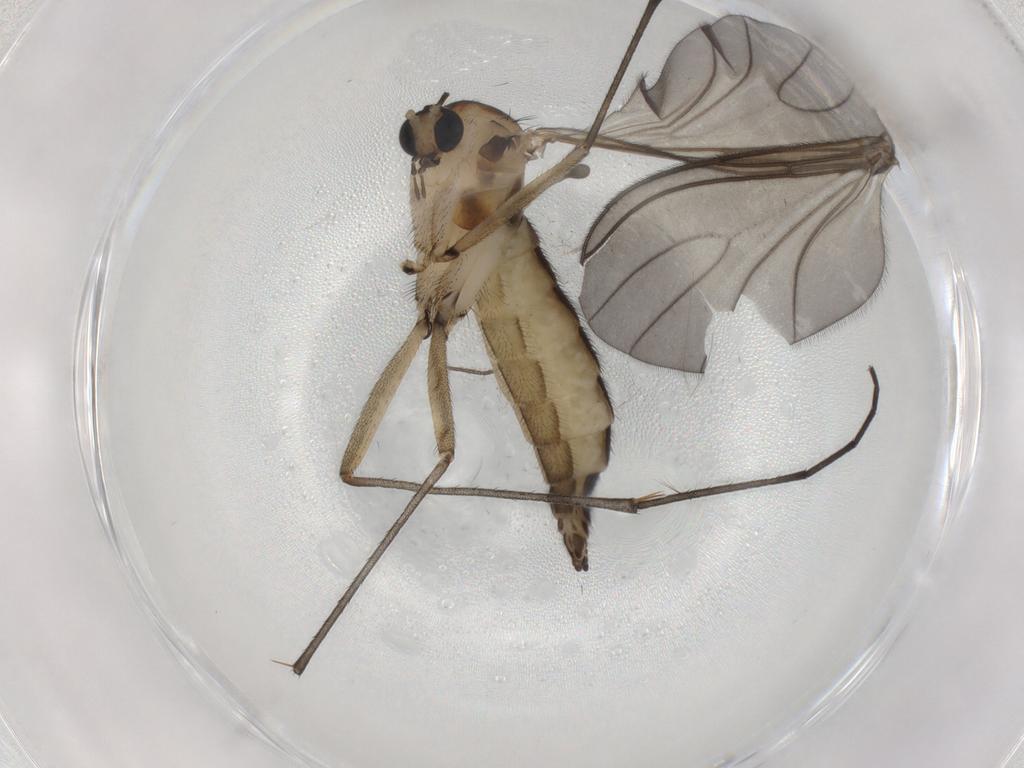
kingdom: Animalia
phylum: Arthropoda
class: Insecta
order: Diptera
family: Sciaridae
